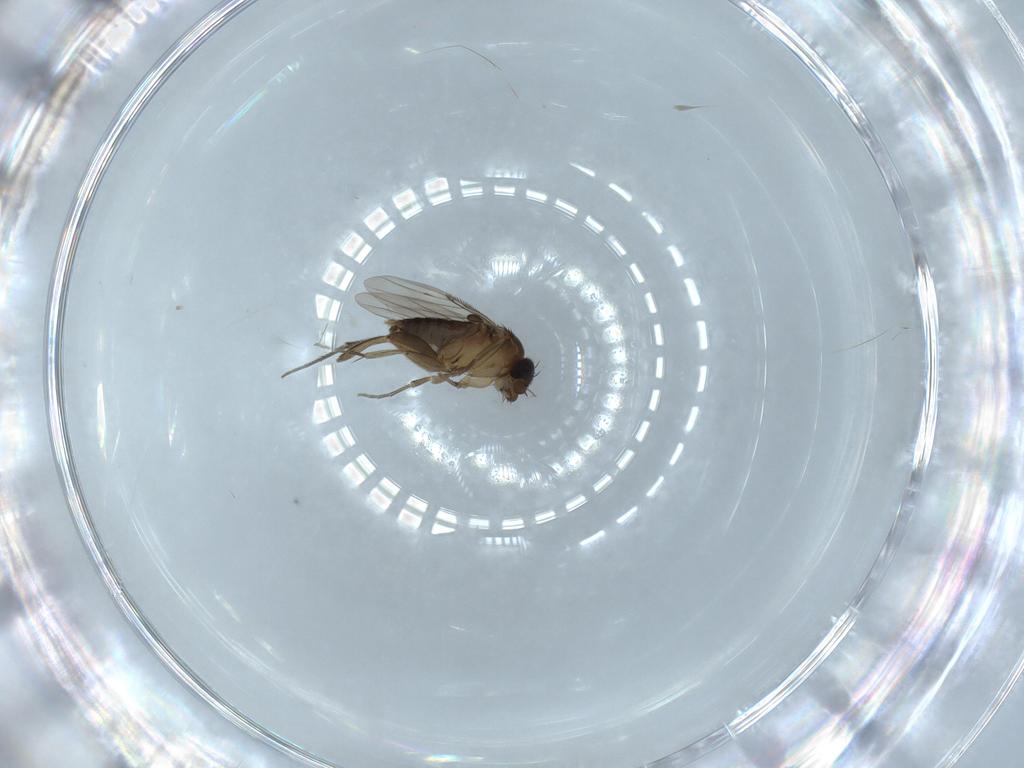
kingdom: Animalia
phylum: Arthropoda
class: Insecta
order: Diptera
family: Phoridae
